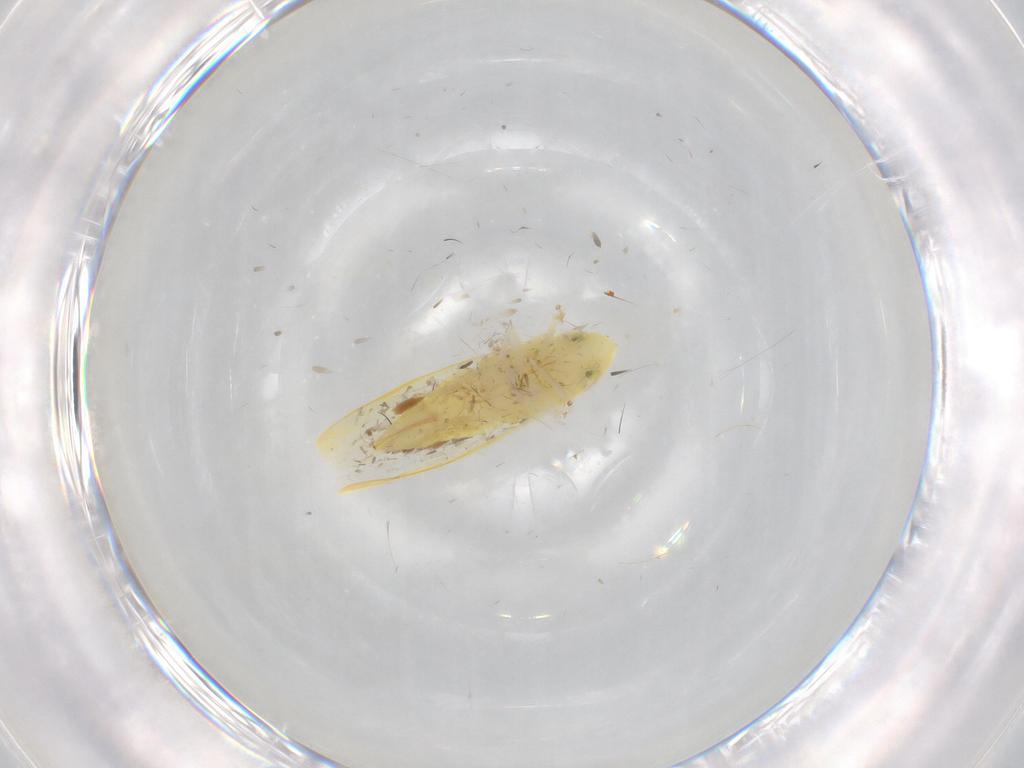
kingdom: Animalia
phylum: Arthropoda
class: Insecta
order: Hemiptera
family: Cicadellidae
